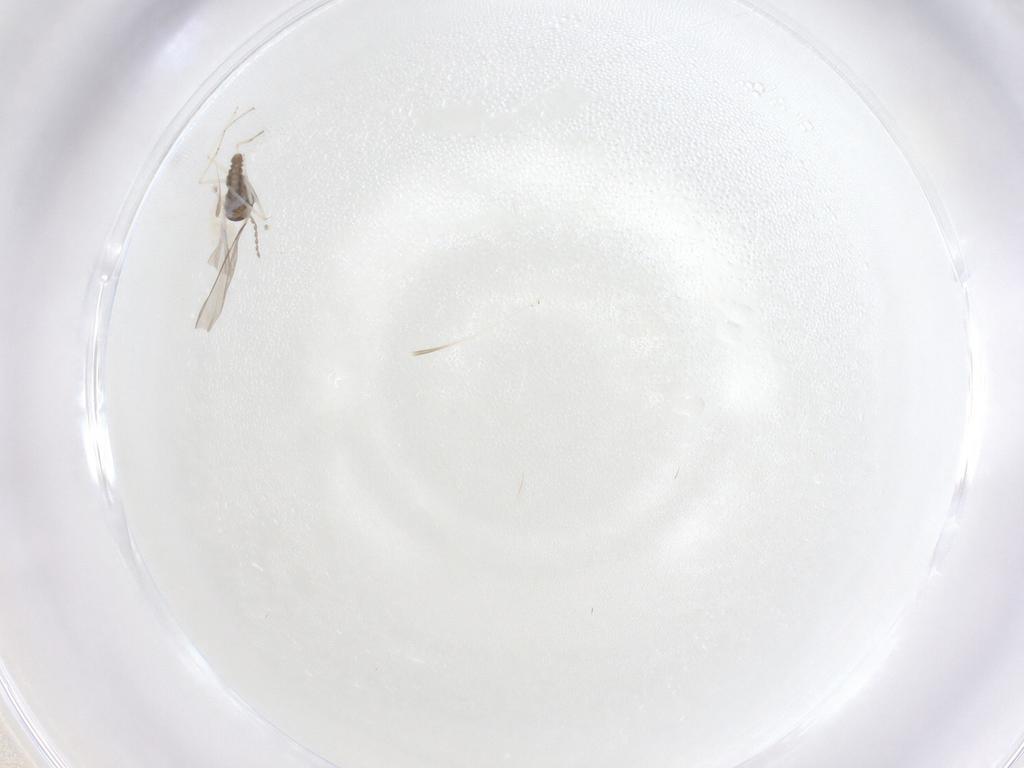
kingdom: Animalia
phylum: Arthropoda
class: Insecta
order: Diptera
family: Cecidomyiidae
